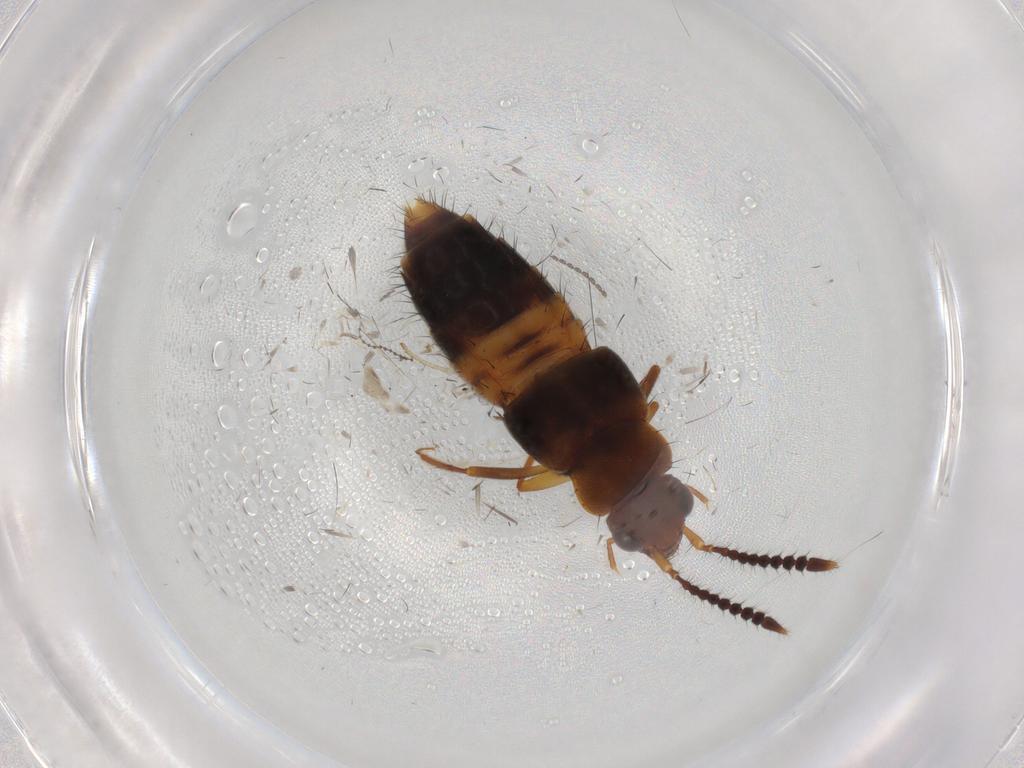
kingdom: Animalia
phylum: Arthropoda
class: Insecta
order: Coleoptera
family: Staphylinidae
